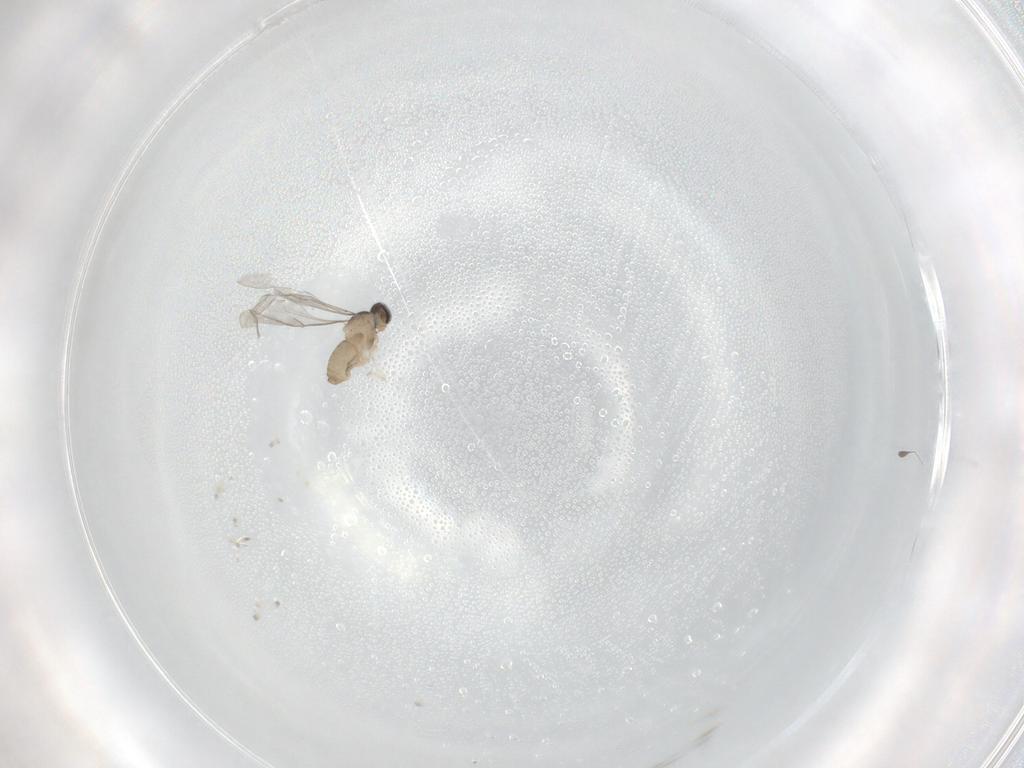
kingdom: Animalia
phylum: Arthropoda
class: Insecta
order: Diptera
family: Cecidomyiidae
